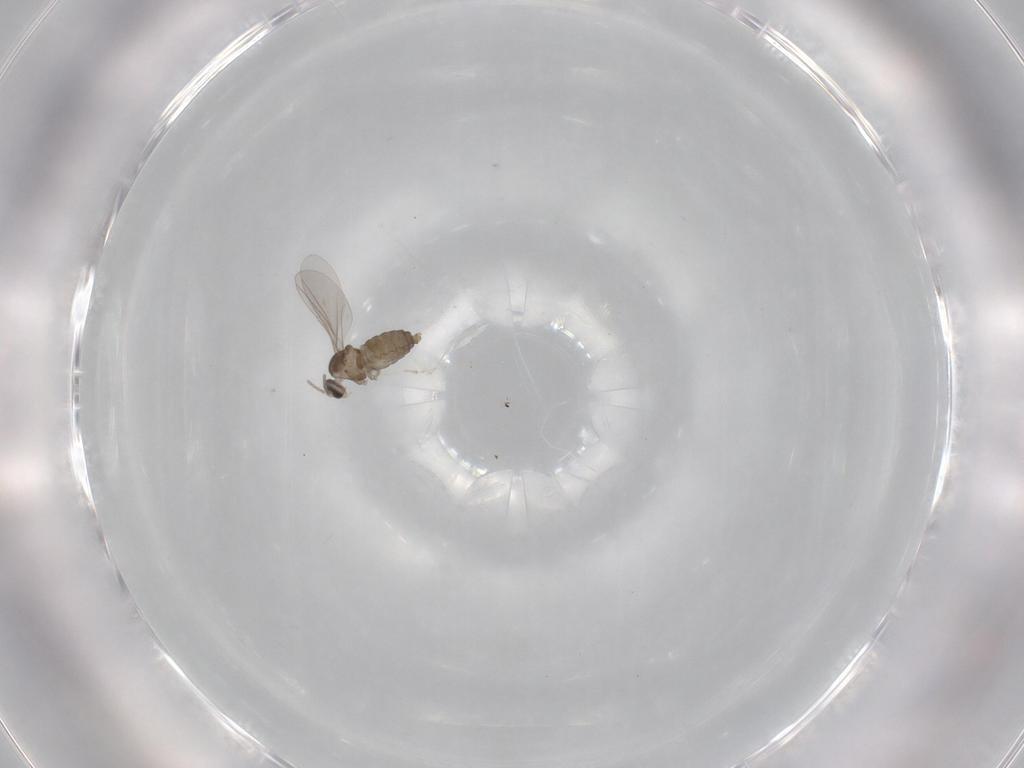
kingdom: Animalia
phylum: Arthropoda
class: Insecta
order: Diptera
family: Cecidomyiidae
